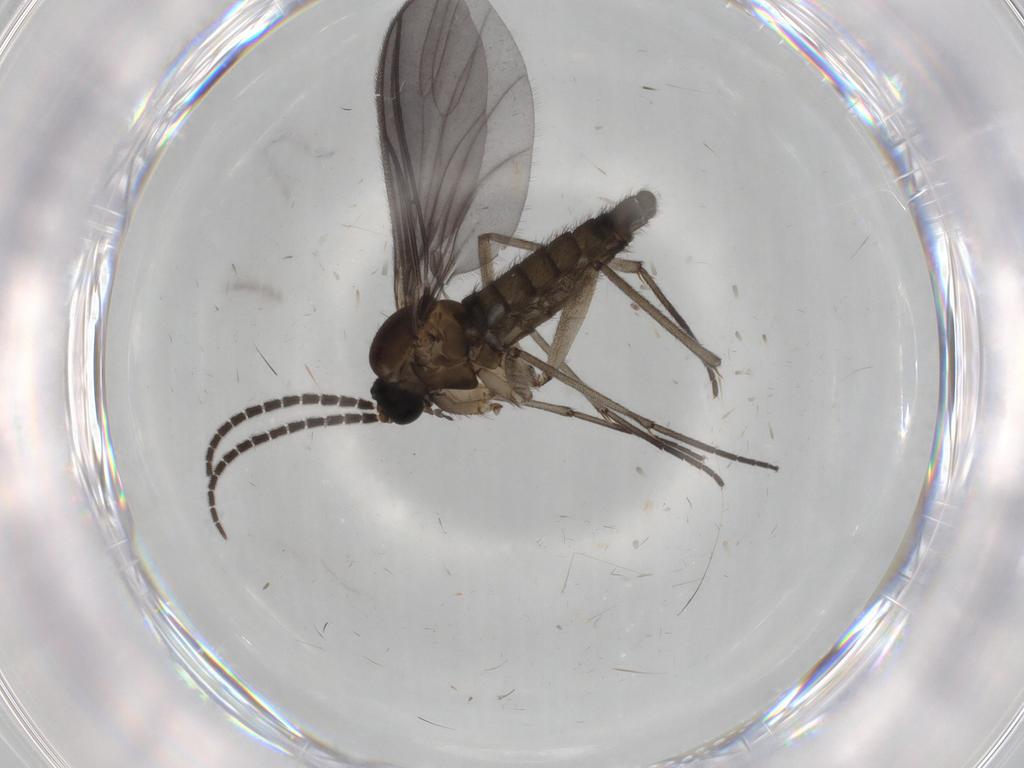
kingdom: Animalia
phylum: Arthropoda
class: Insecta
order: Diptera
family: Sciaridae
